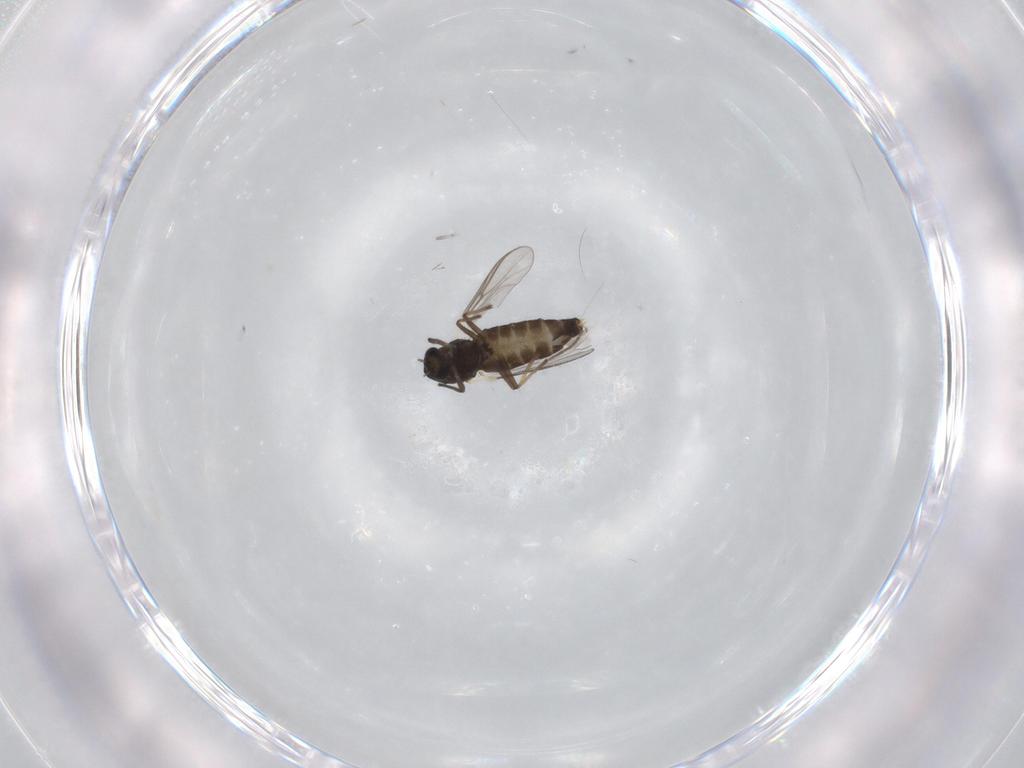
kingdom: Animalia
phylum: Arthropoda
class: Insecta
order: Diptera
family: Chironomidae
